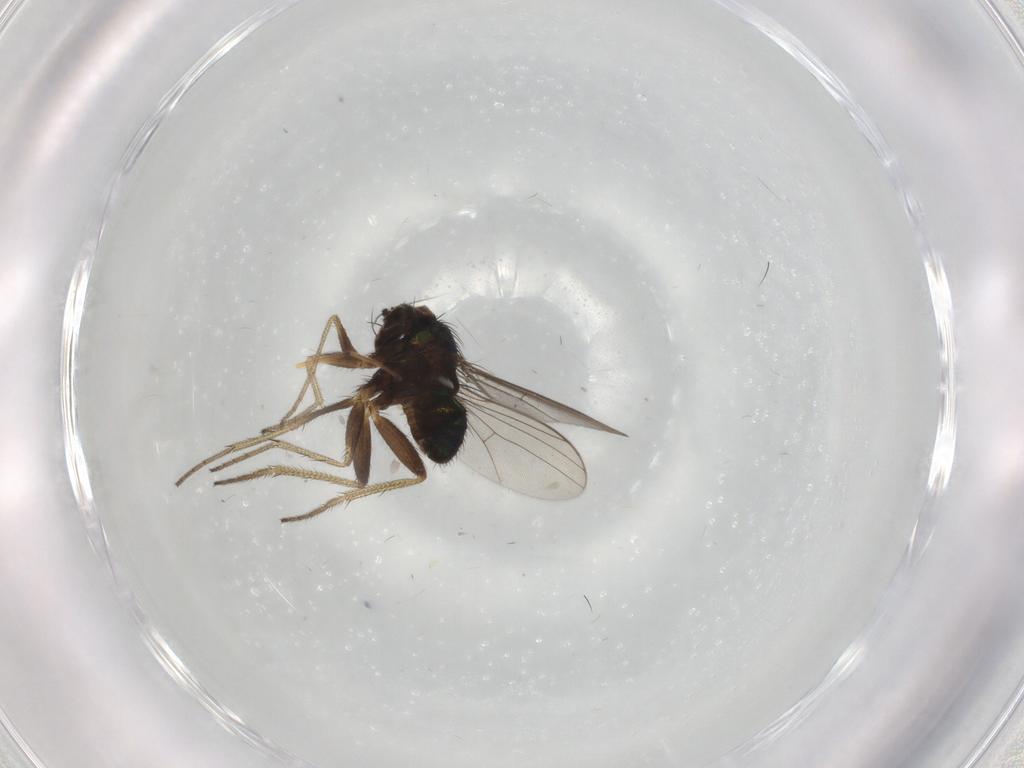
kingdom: Animalia
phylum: Arthropoda
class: Insecta
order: Diptera
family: Chironomidae
